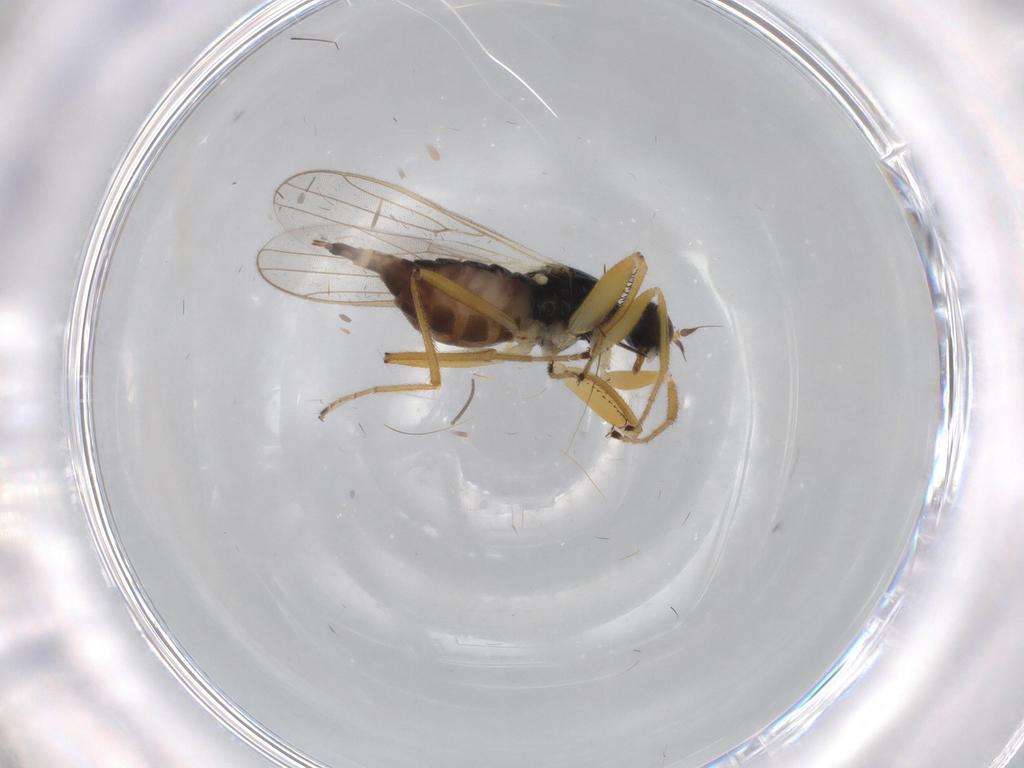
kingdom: Animalia
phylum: Arthropoda
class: Insecta
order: Diptera
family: Hybotidae
